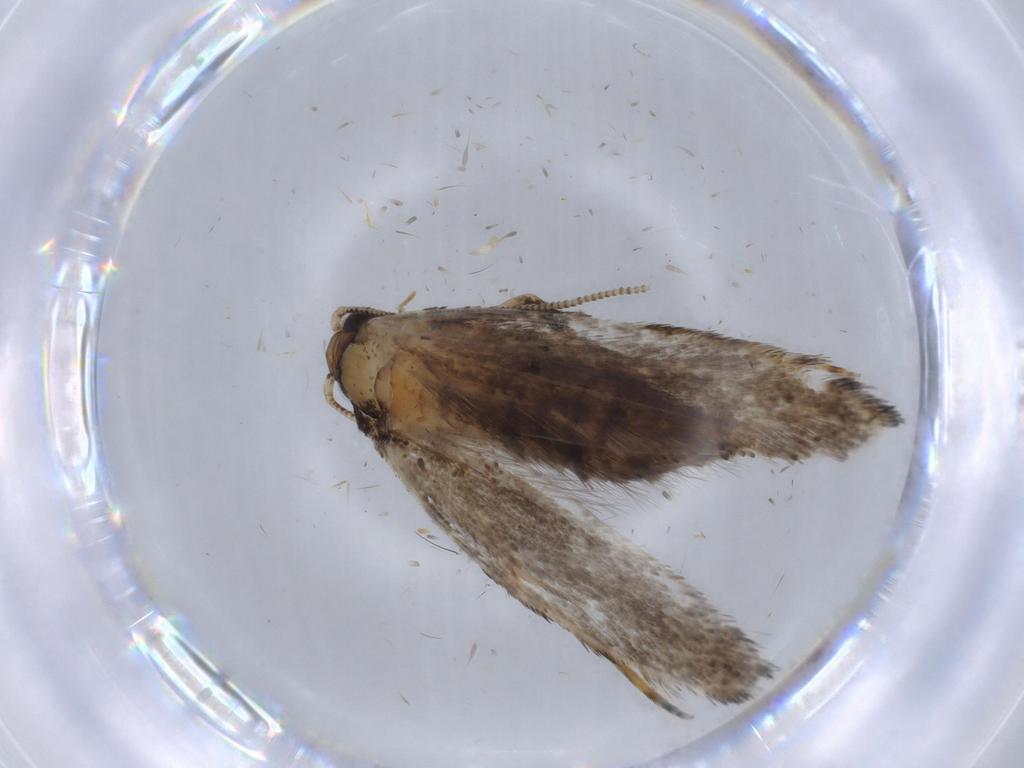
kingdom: Animalia
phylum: Arthropoda
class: Insecta
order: Lepidoptera
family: Tineidae
